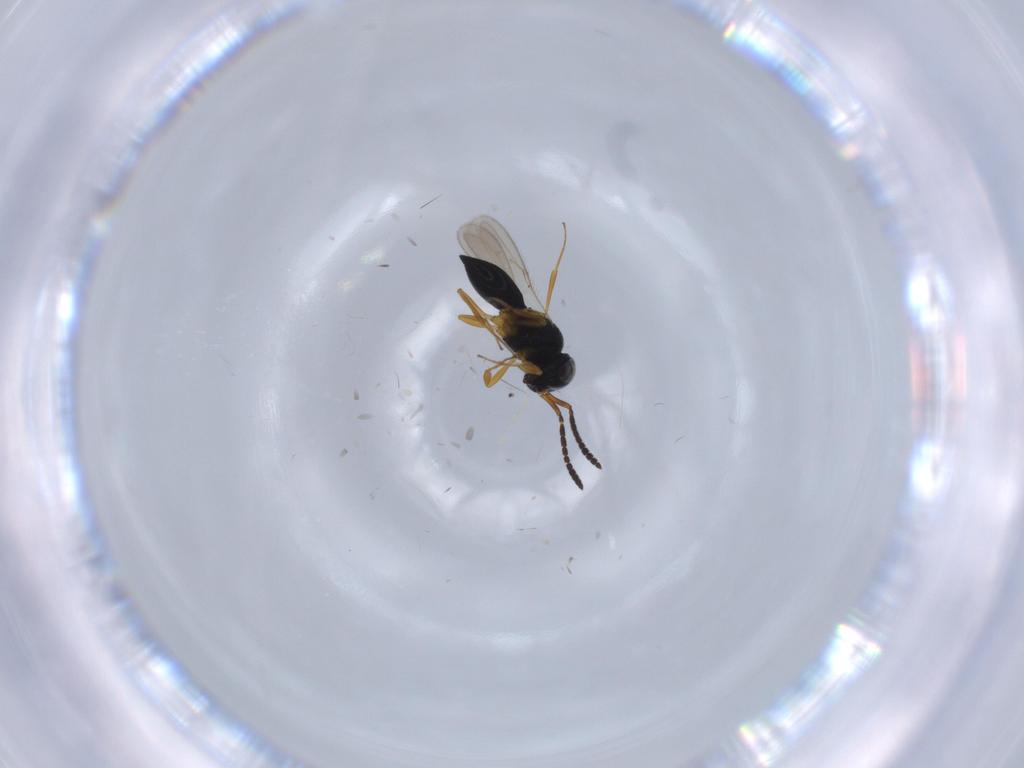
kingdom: Animalia
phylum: Arthropoda
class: Insecta
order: Hymenoptera
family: Scelionidae
